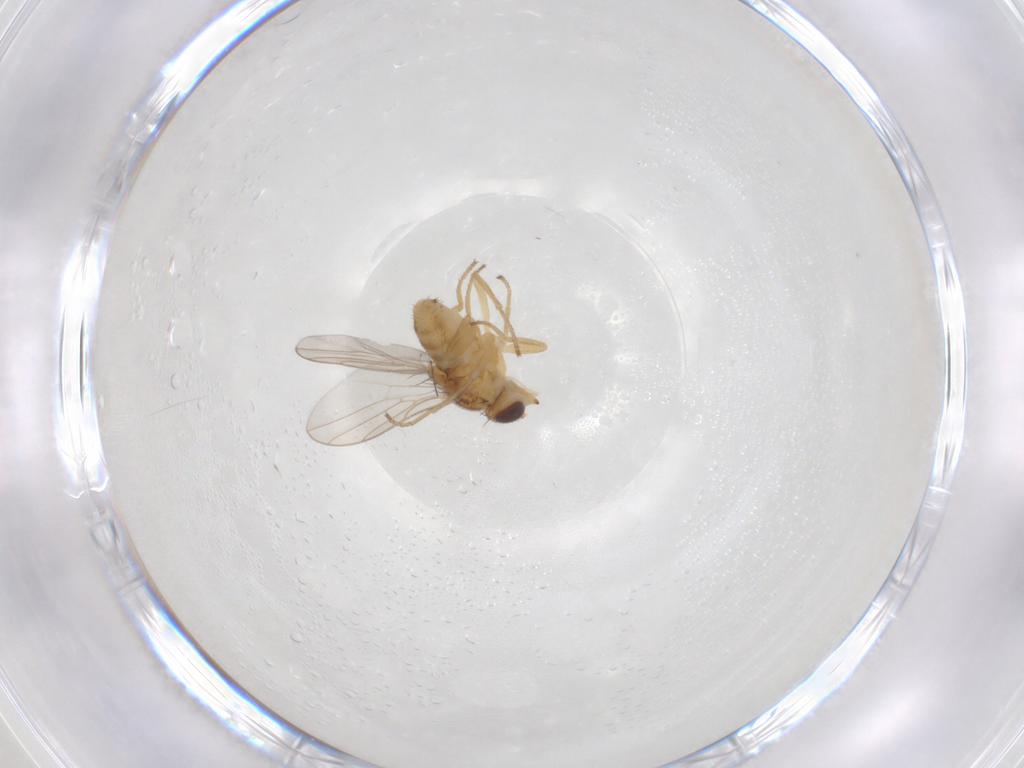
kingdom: Animalia
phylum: Arthropoda
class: Insecta
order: Diptera
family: Chloropidae
